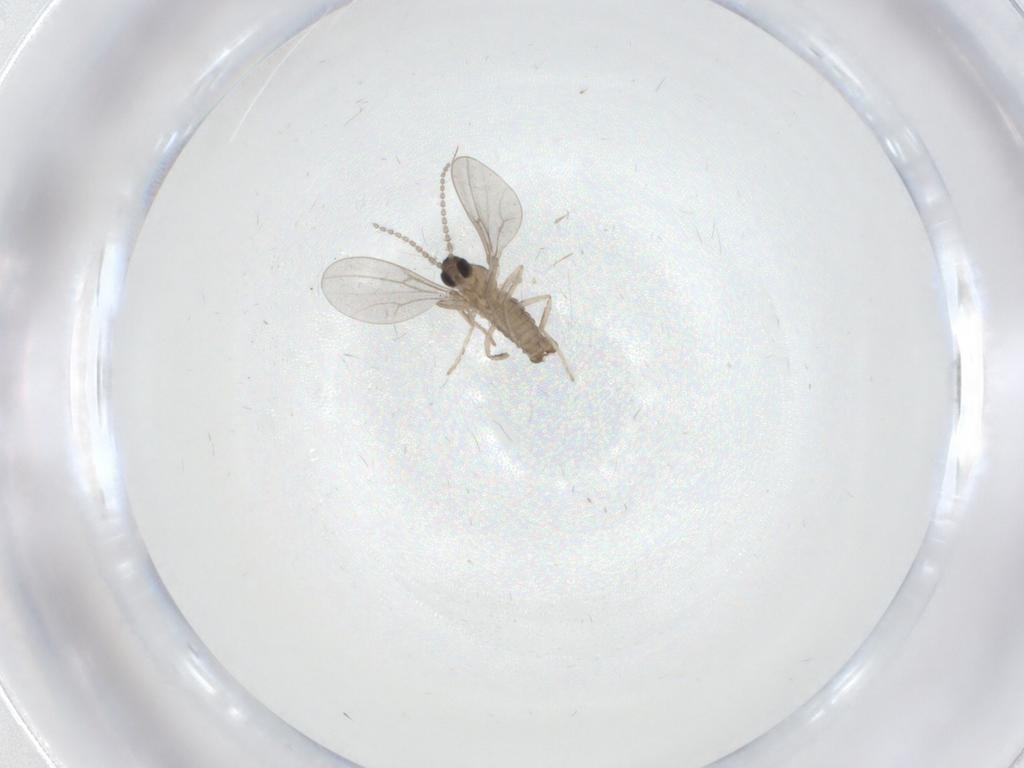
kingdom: Animalia
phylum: Arthropoda
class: Insecta
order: Diptera
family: Cecidomyiidae
